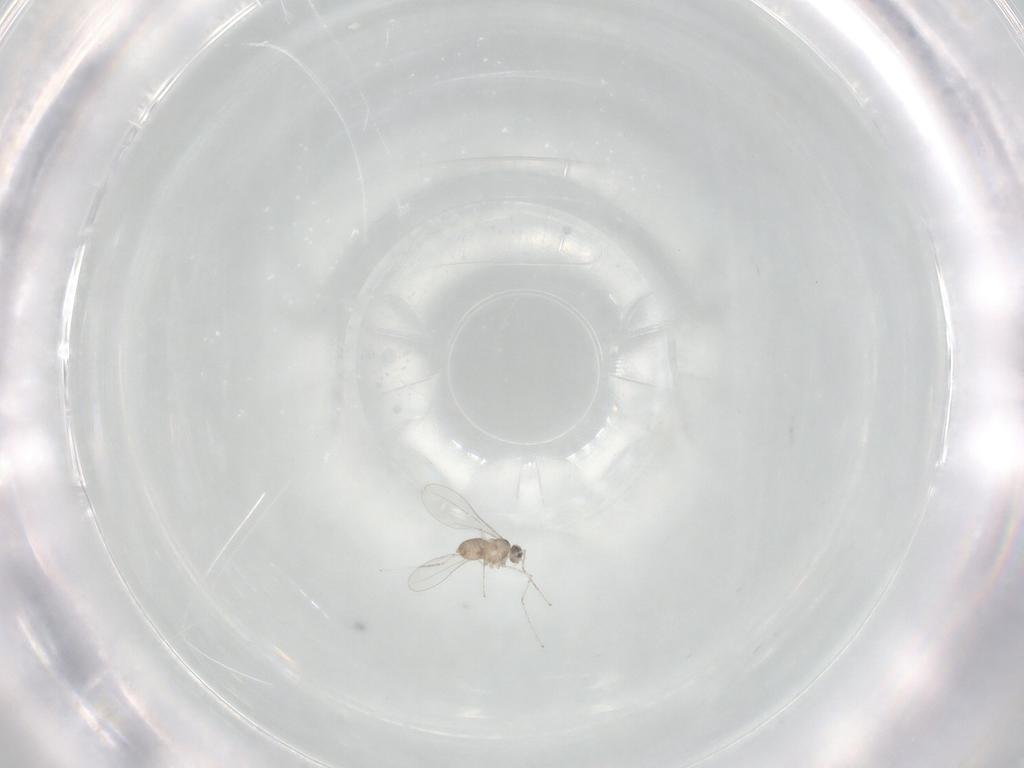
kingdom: Animalia
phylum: Arthropoda
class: Insecta
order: Diptera
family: Cecidomyiidae
